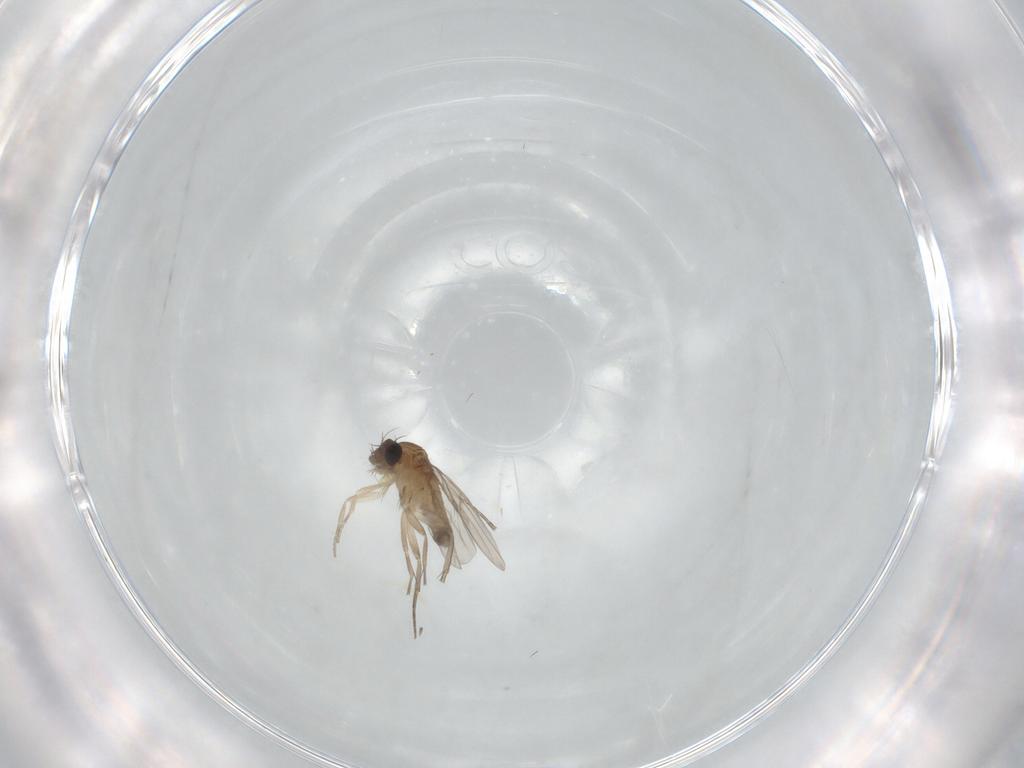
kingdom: Animalia
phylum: Arthropoda
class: Insecta
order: Diptera
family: Phoridae
